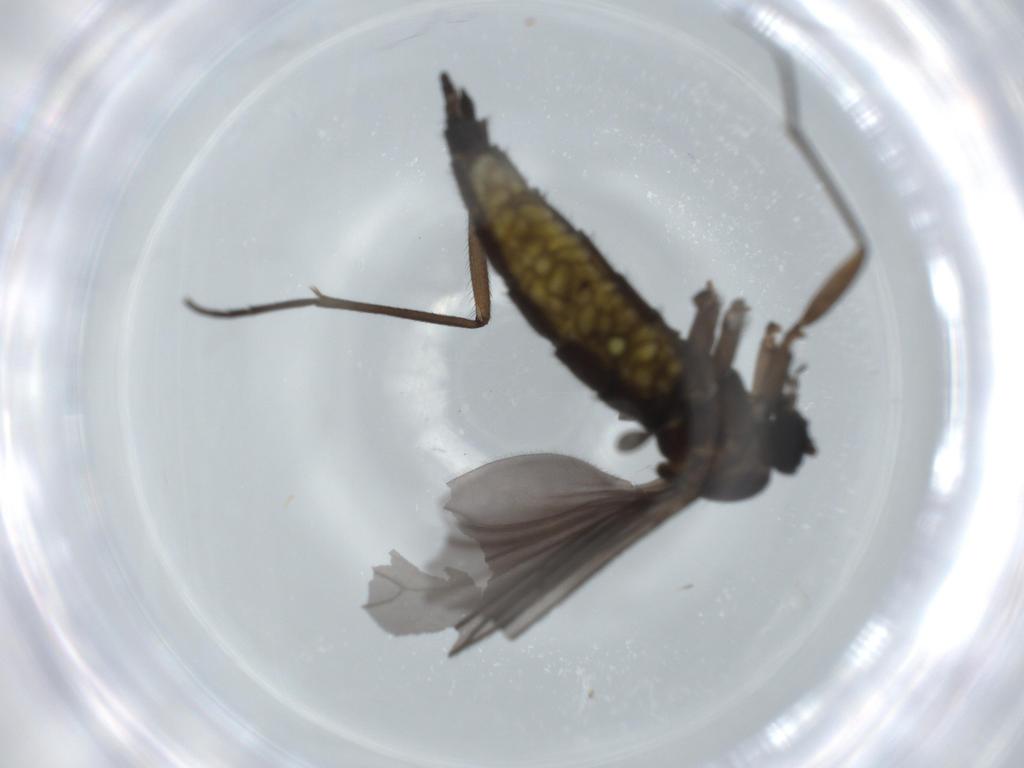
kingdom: Animalia
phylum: Arthropoda
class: Insecta
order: Diptera
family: Sciaridae
